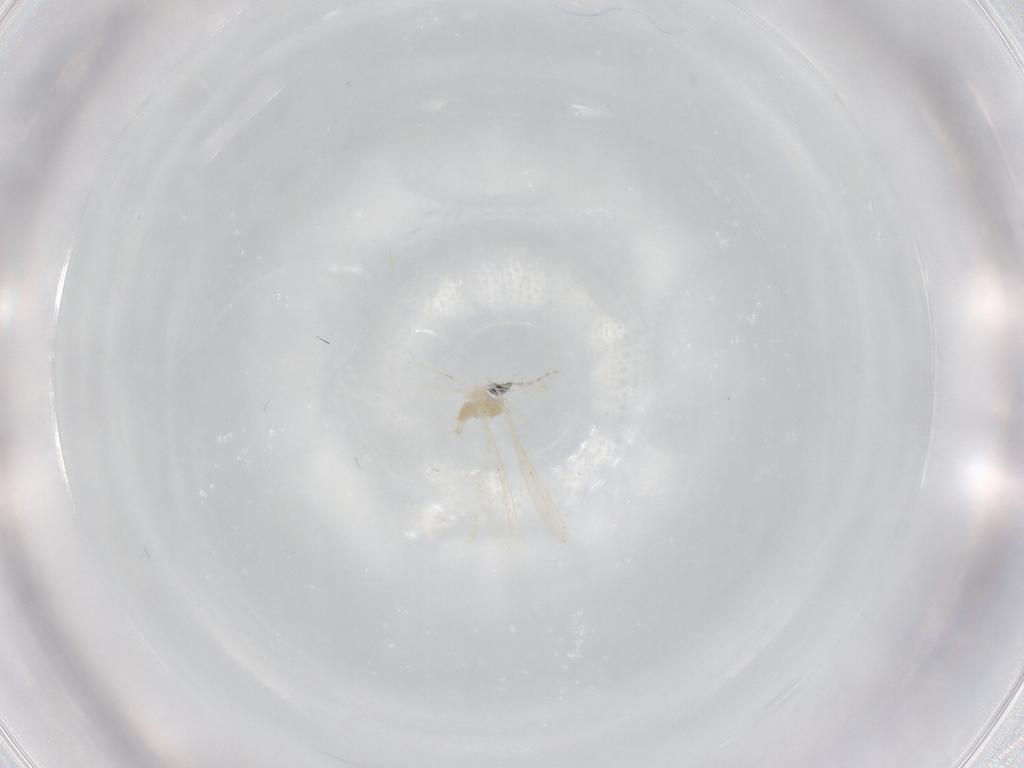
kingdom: Animalia
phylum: Arthropoda
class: Insecta
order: Diptera
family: Cecidomyiidae
